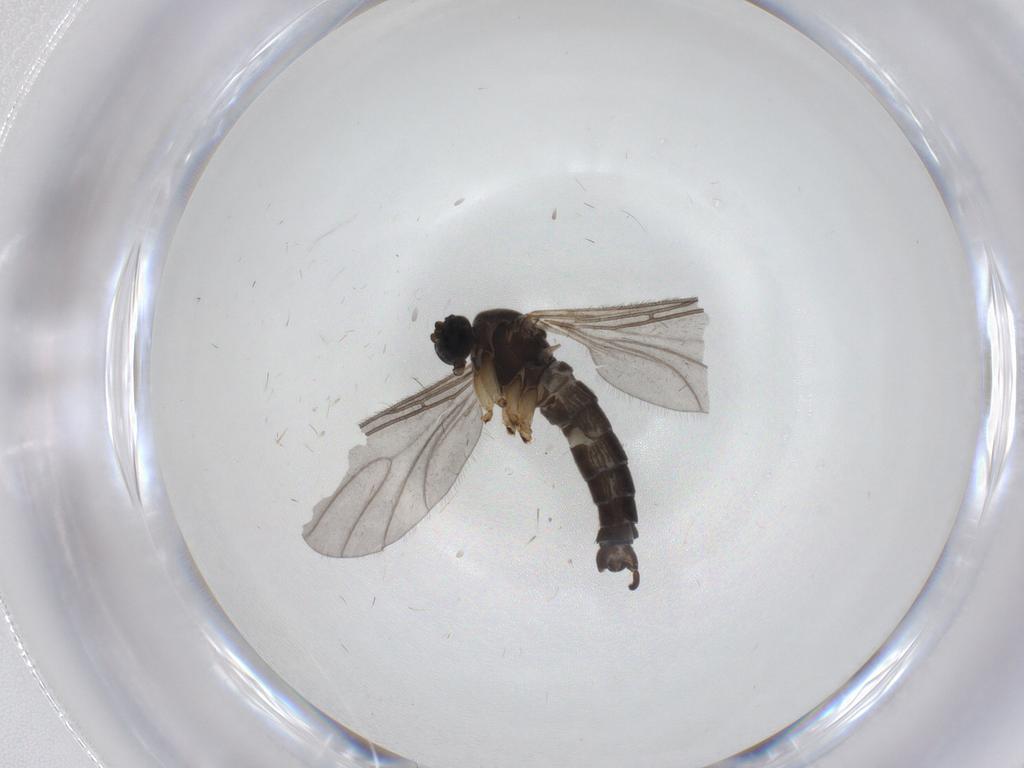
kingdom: Animalia
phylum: Arthropoda
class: Insecta
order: Diptera
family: Sciaridae
